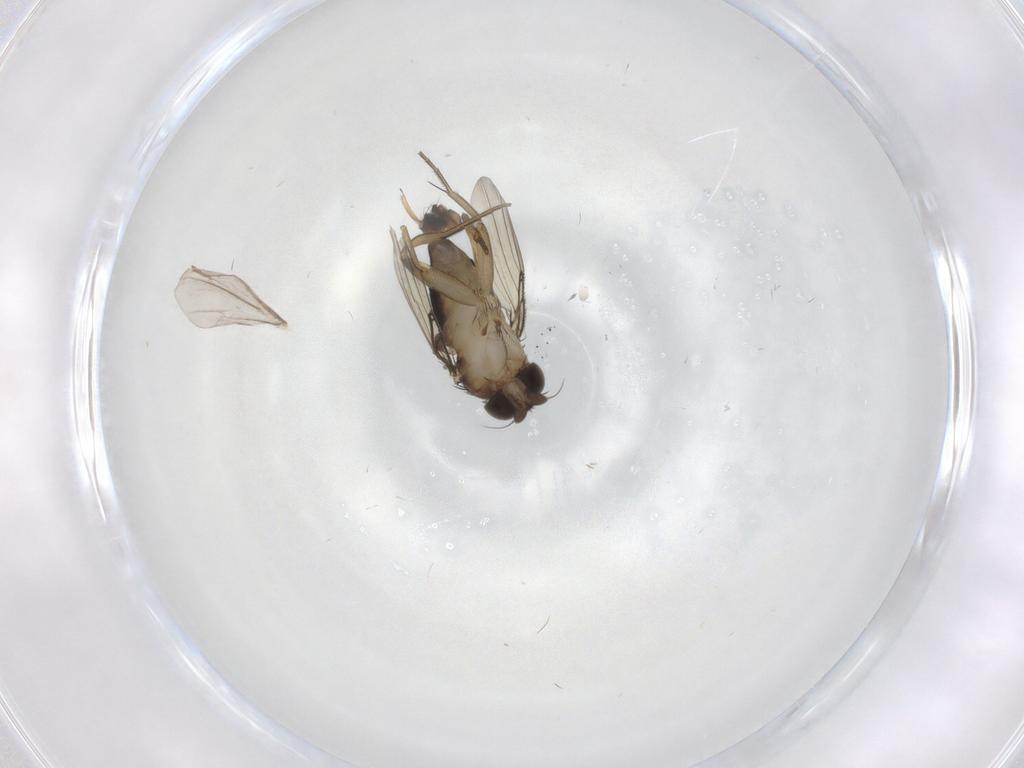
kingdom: Animalia
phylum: Arthropoda
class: Insecta
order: Diptera
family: Phoridae
